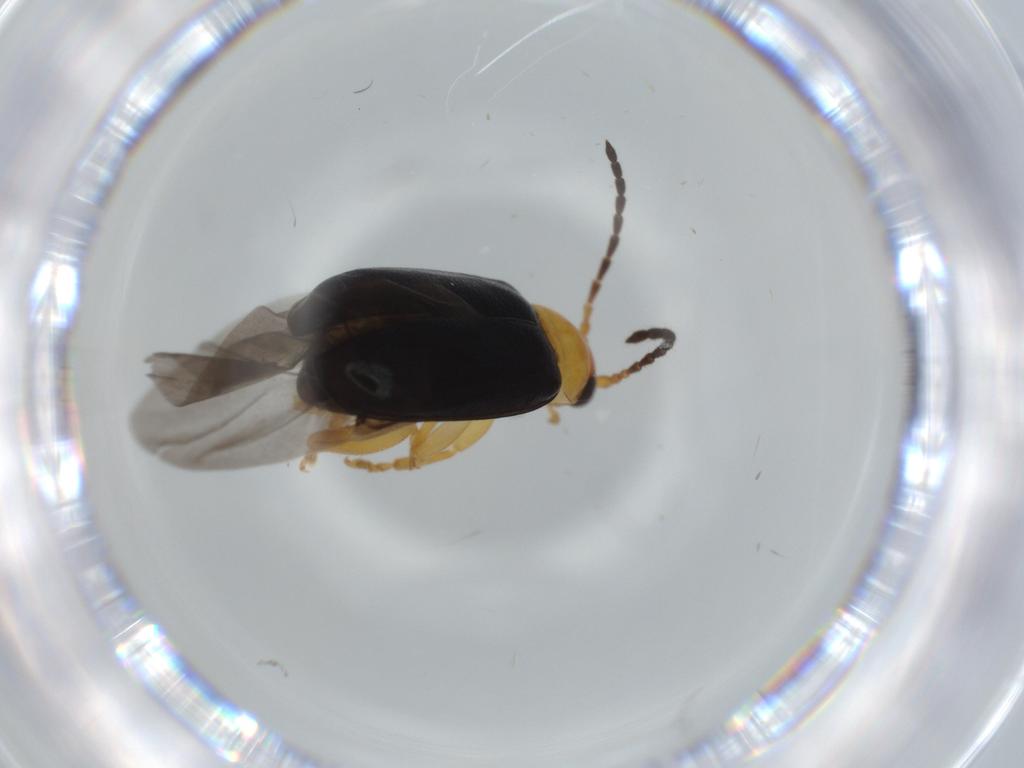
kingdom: Animalia
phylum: Arthropoda
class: Insecta
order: Coleoptera
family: Chrysomelidae
